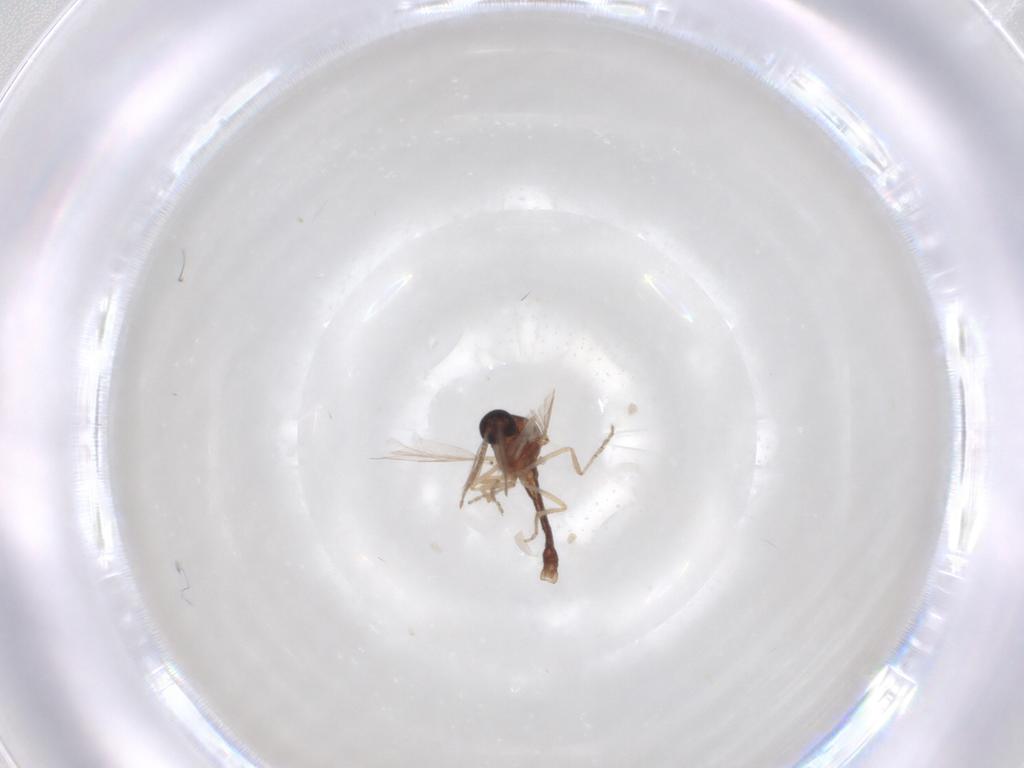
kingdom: Animalia
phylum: Arthropoda
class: Insecta
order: Diptera
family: Ceratopogonidae
